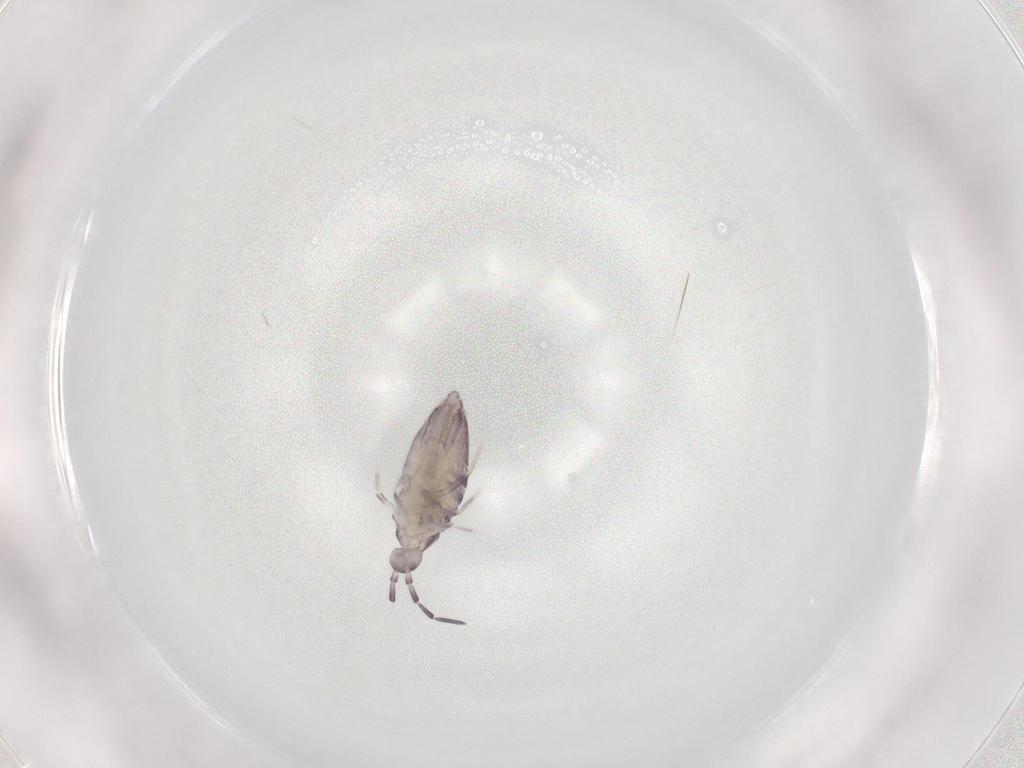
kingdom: Animalia
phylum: Arthropoda
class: Collembola
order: Poduromorpha
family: Hypogastruridae
